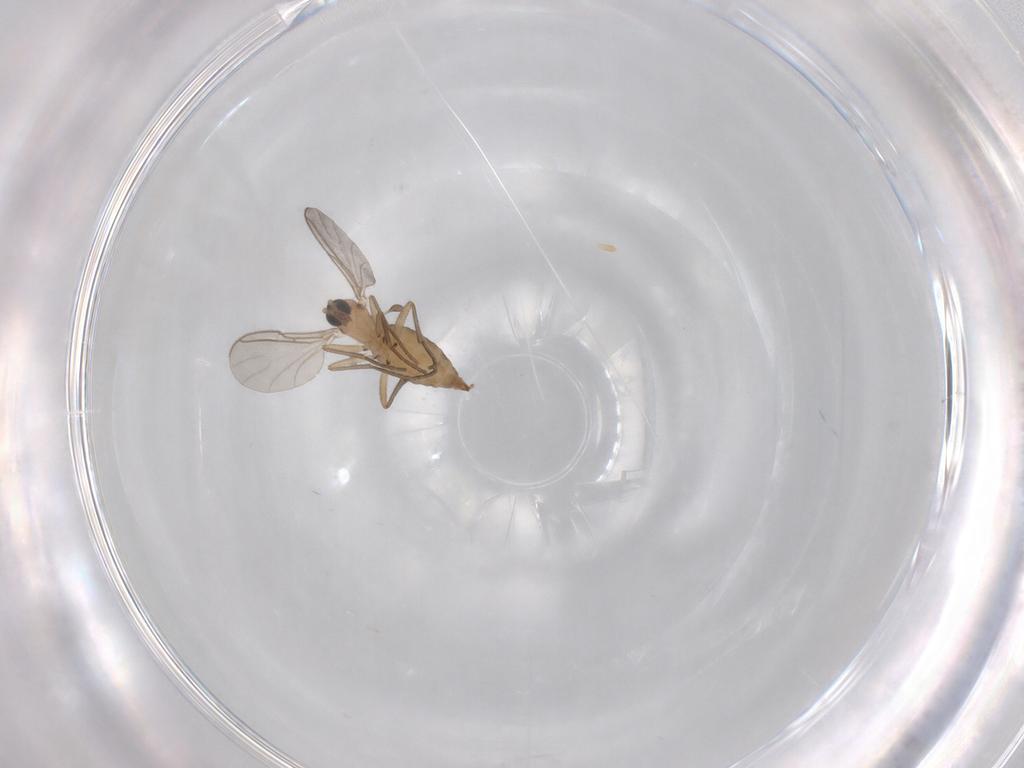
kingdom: Animalia
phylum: Arthropoda
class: Insecta
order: Diptera
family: Sciaridae
